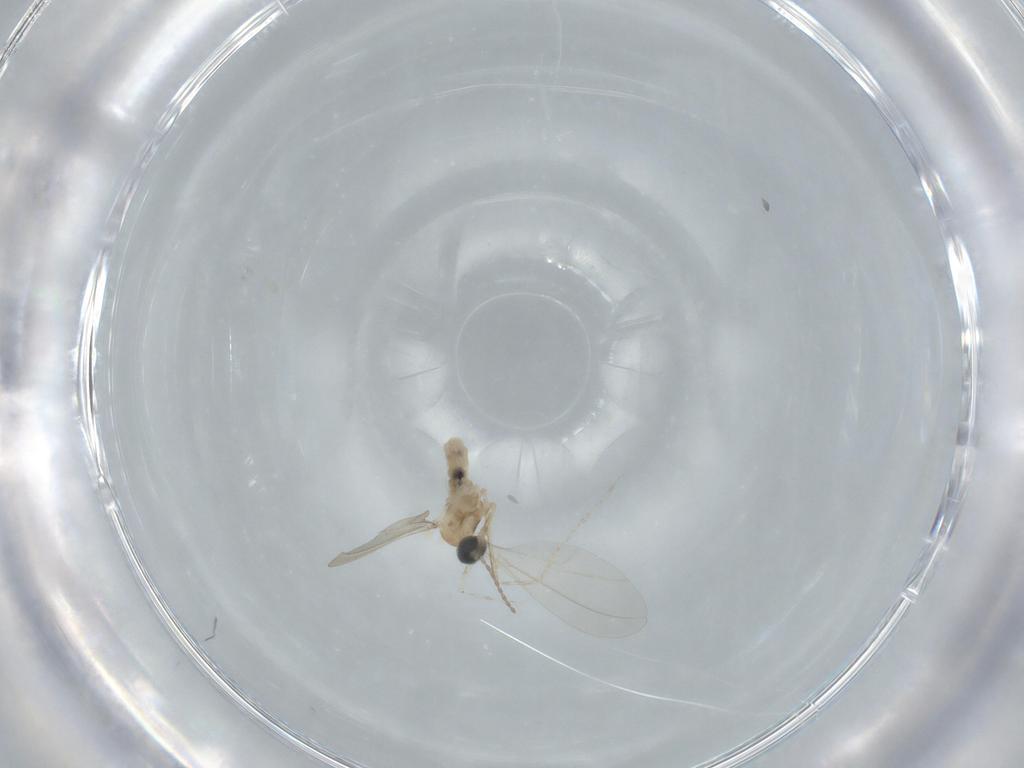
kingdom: Animalia
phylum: Arthropoda
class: Insecta
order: Diptera
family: Cecidomyiidae
